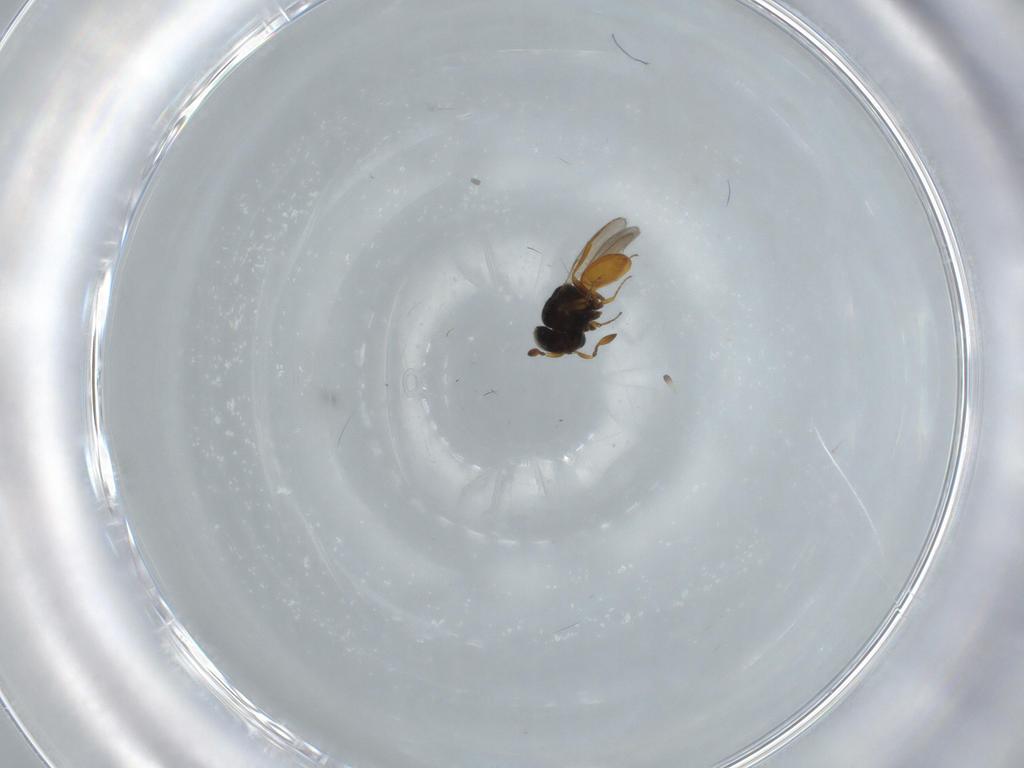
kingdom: Animalia
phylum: Arthropoda
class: Insecta
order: Hymenoptera
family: Scelionidae
